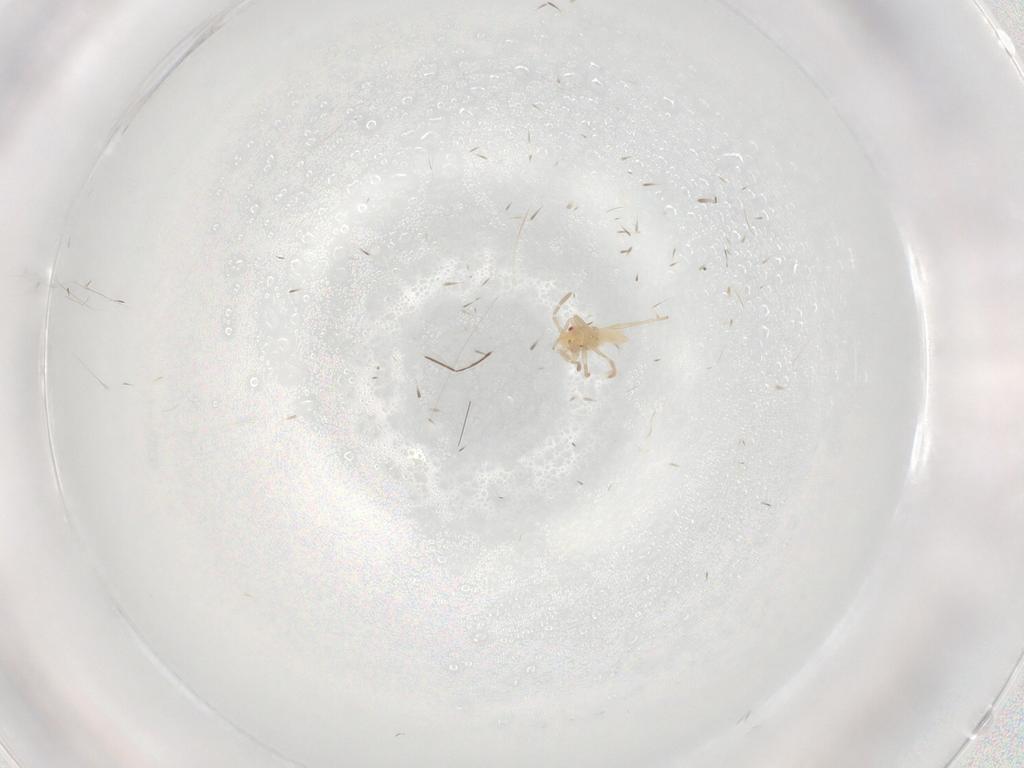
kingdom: Animalia
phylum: Arthropoda
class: Insecta
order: Hemiptera
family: Miridae
